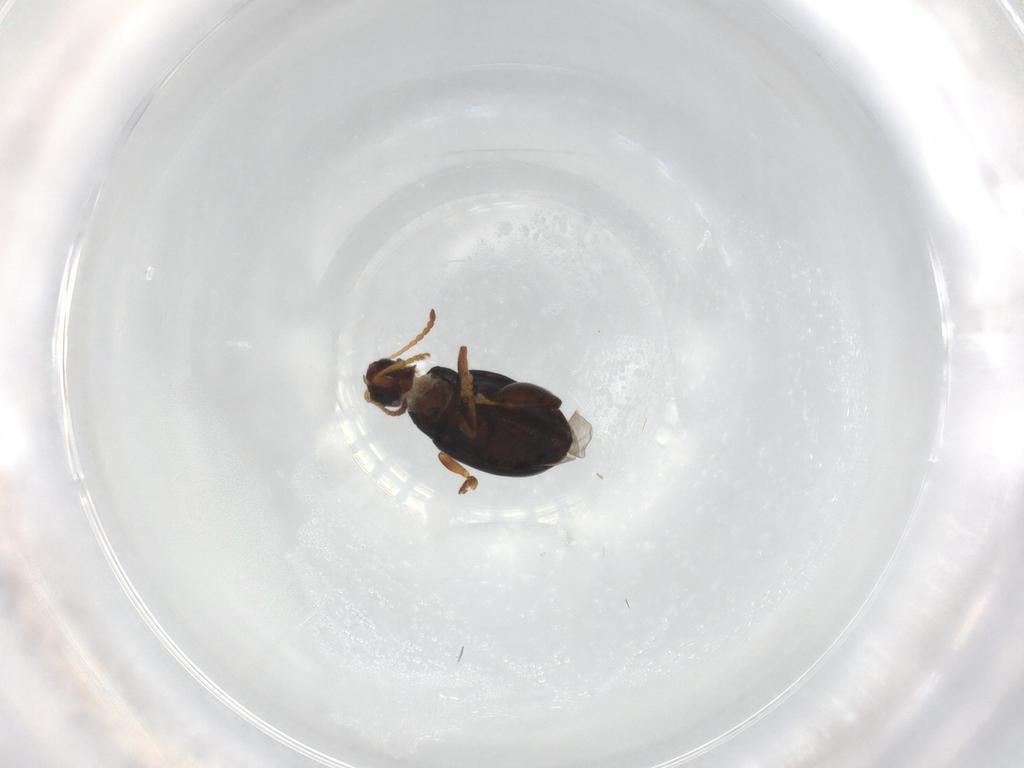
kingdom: Animalia
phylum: Arthropoda
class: Insecta
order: Coleoptera
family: Chrysomelidae
